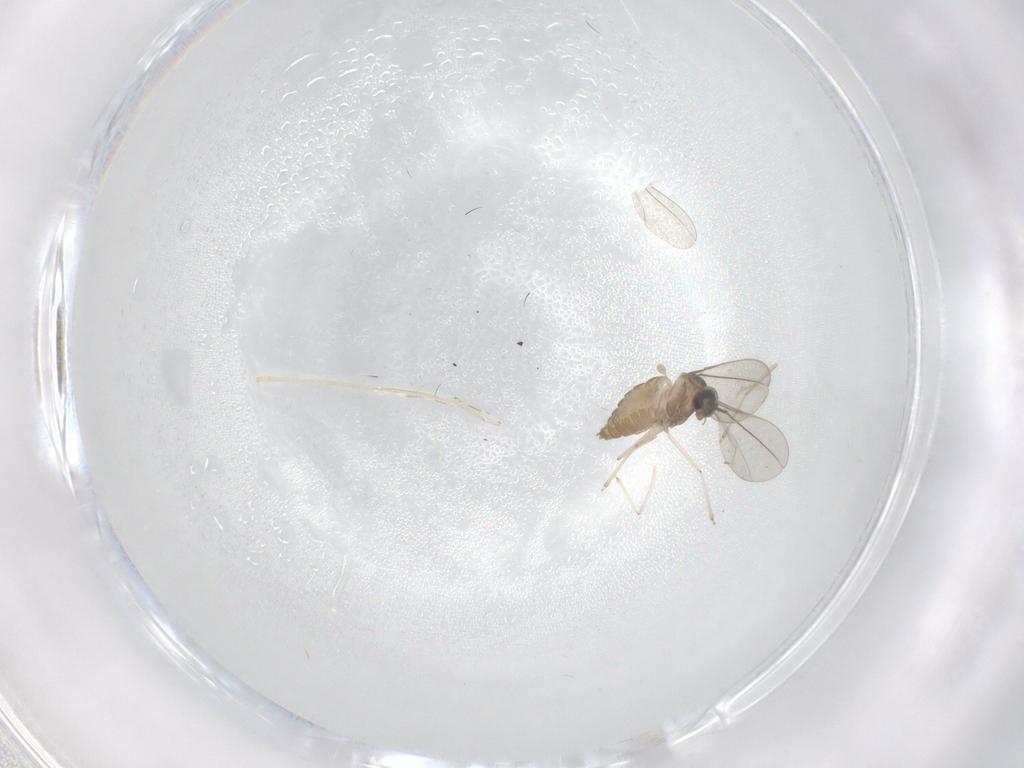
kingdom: Animalia
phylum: Arthropoda
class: Insecta
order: Diptera
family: Cecidomyiidae
